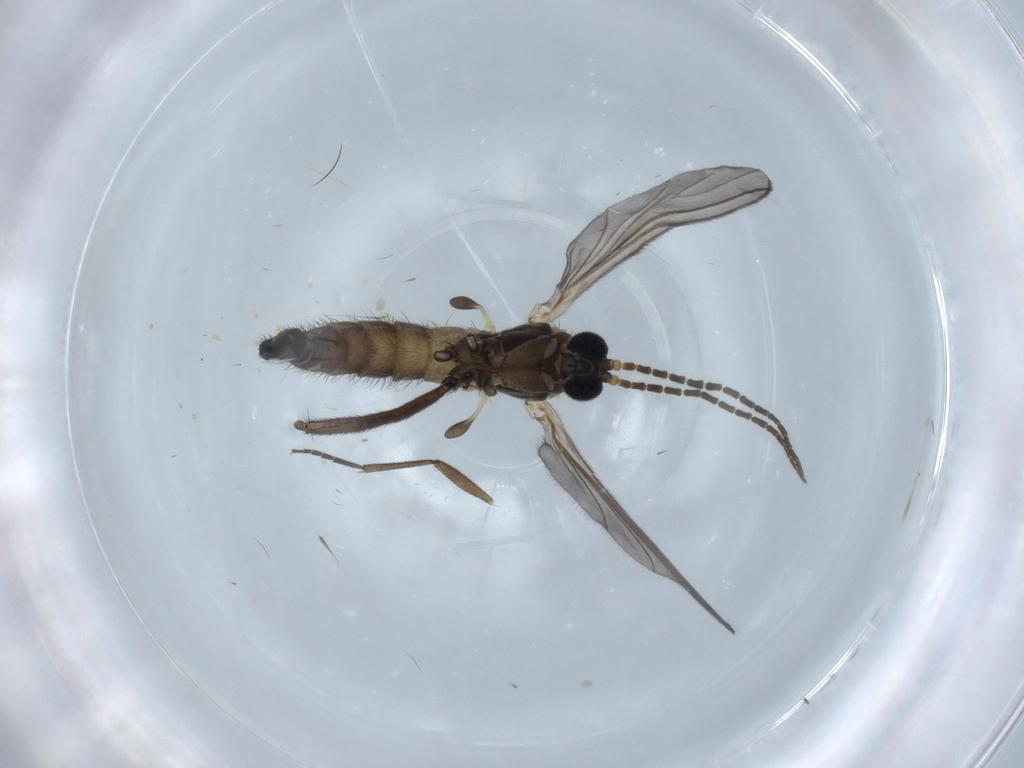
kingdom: Animalia
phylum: Arthropoda
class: Insecta
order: Diptera
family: Sciaridae
